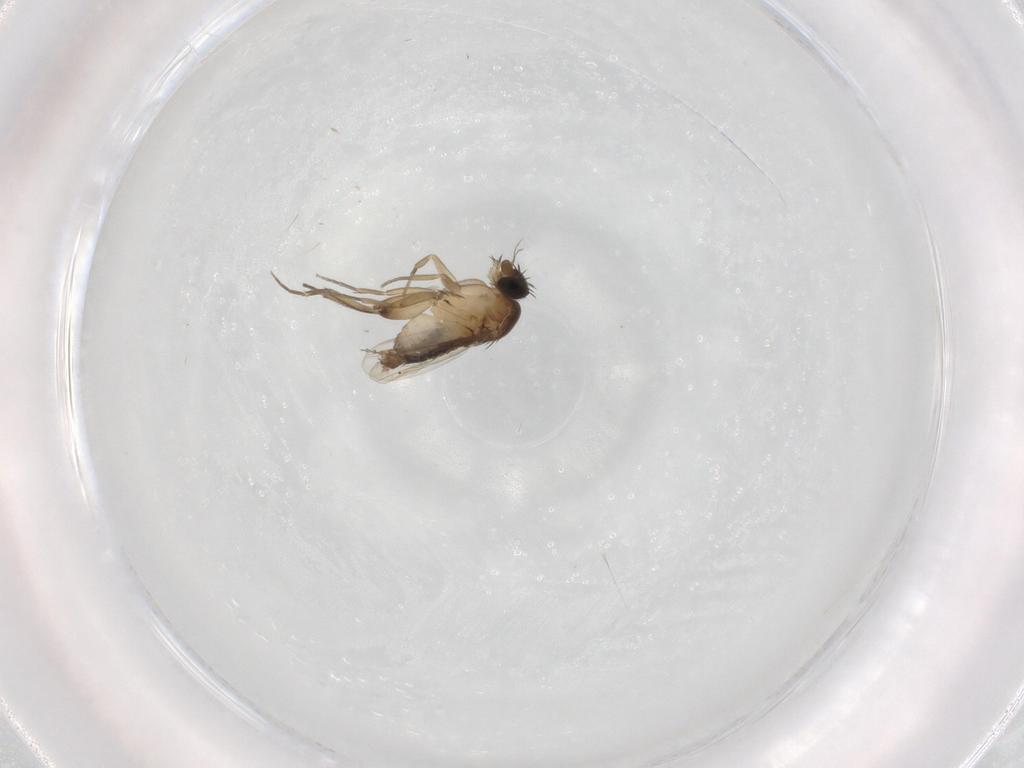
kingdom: Animalia
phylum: Arthropoda
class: Insecta
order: Diptera
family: Phoridae
